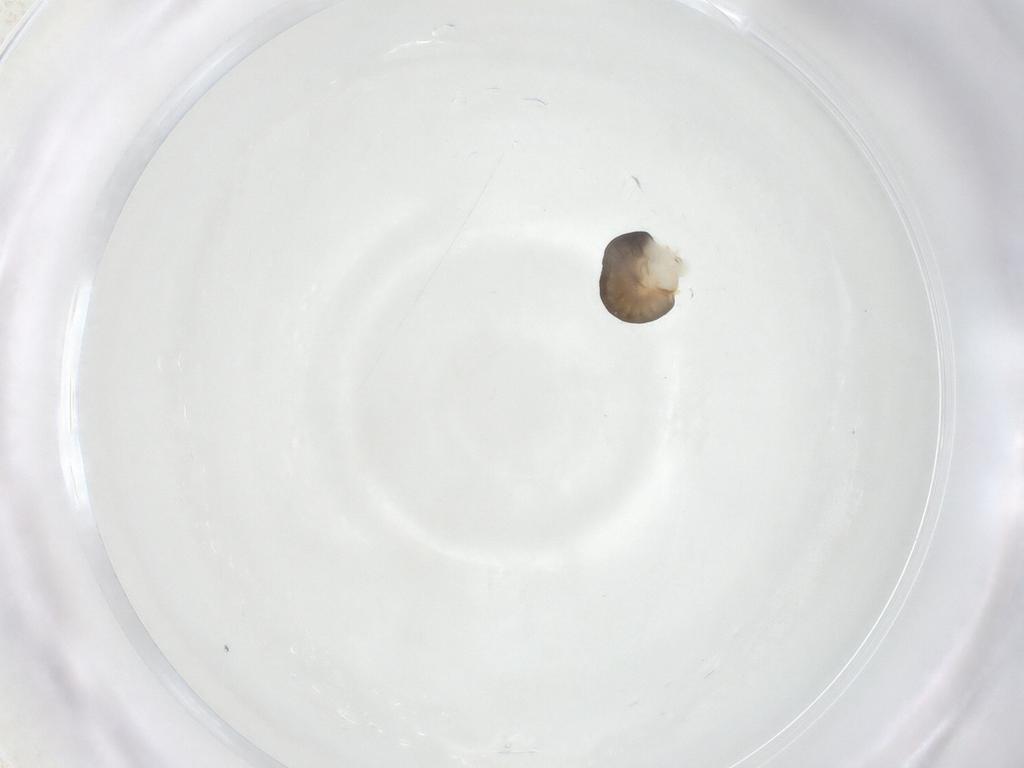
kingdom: Animalia
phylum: Arthropoda
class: Insecta
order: Hymenoptera
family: Dryinidae
